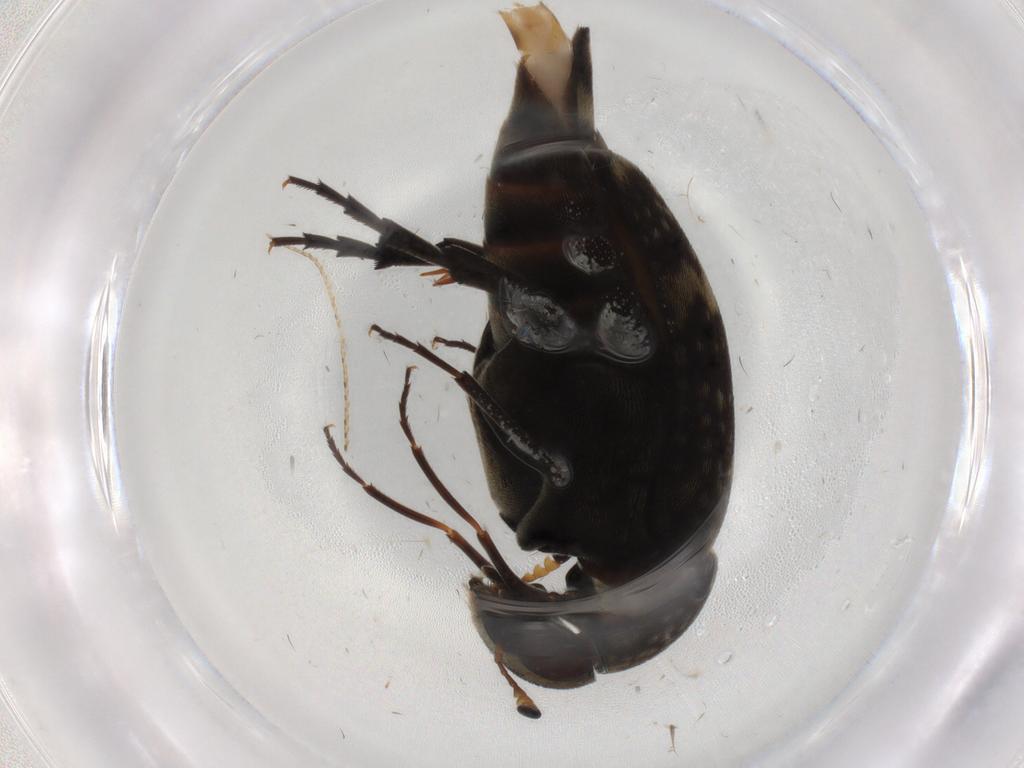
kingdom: Animalia
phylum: Arthropoda
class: Insecta
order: Coleoptera
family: Mordellidae
